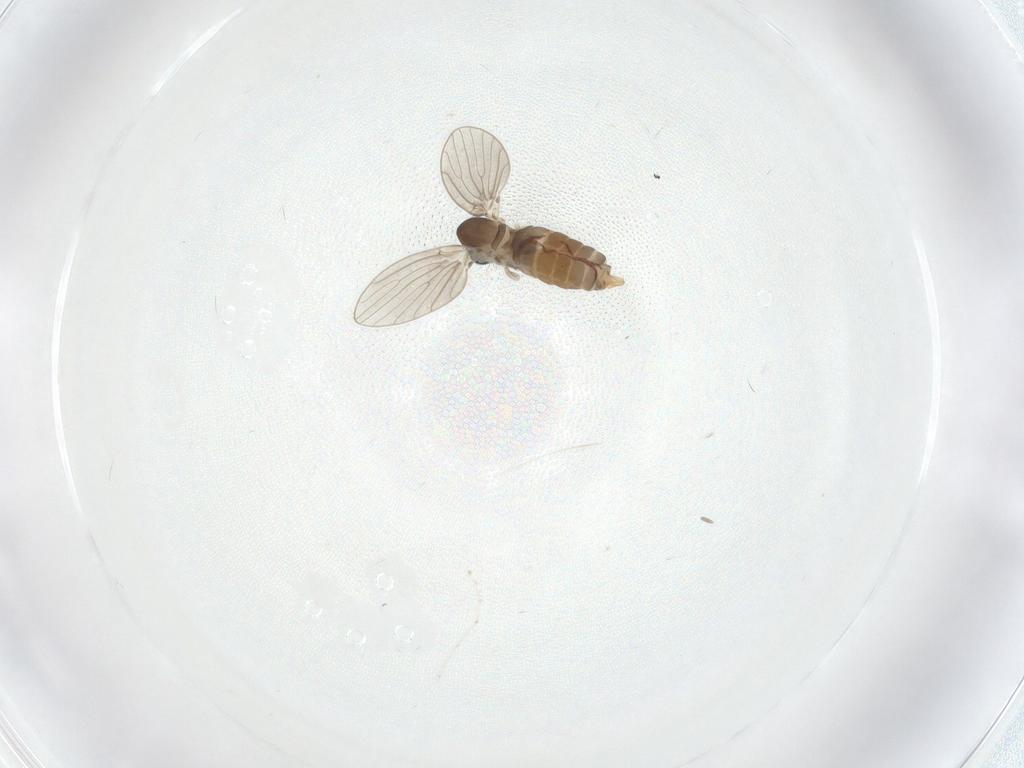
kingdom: Animalia
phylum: Arthropoda
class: Insecta
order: Diptera
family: Cecidomyiidae
